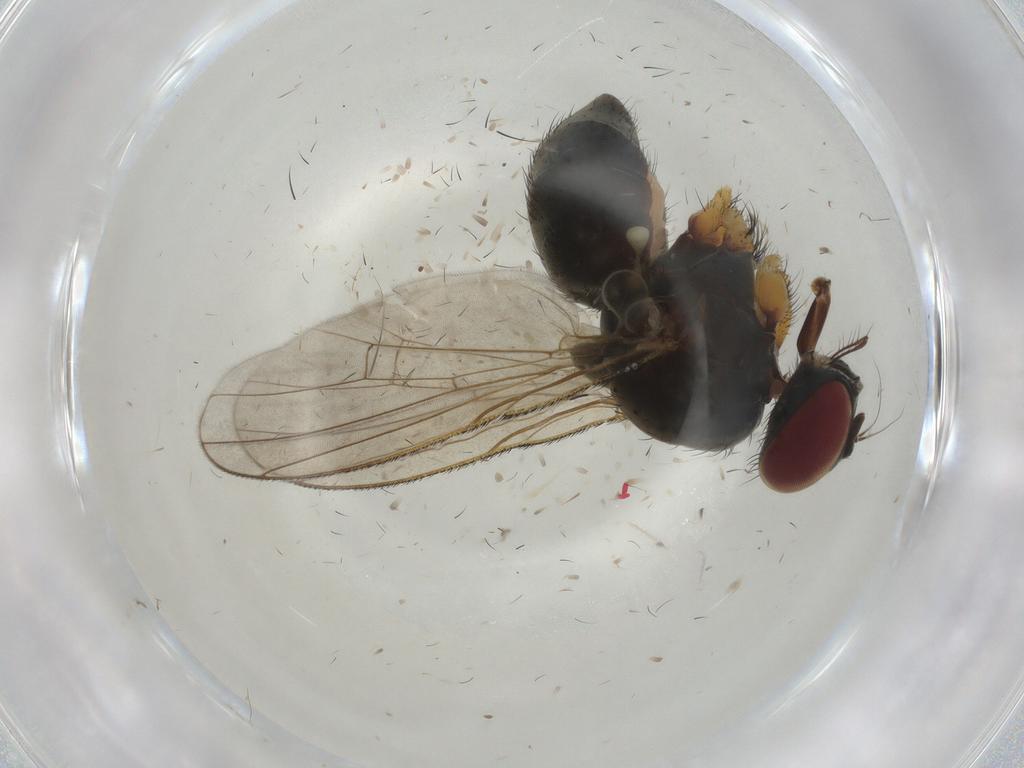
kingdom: Animalia
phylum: Arthropoda
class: Insecta
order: Diptera
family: Muscidae
